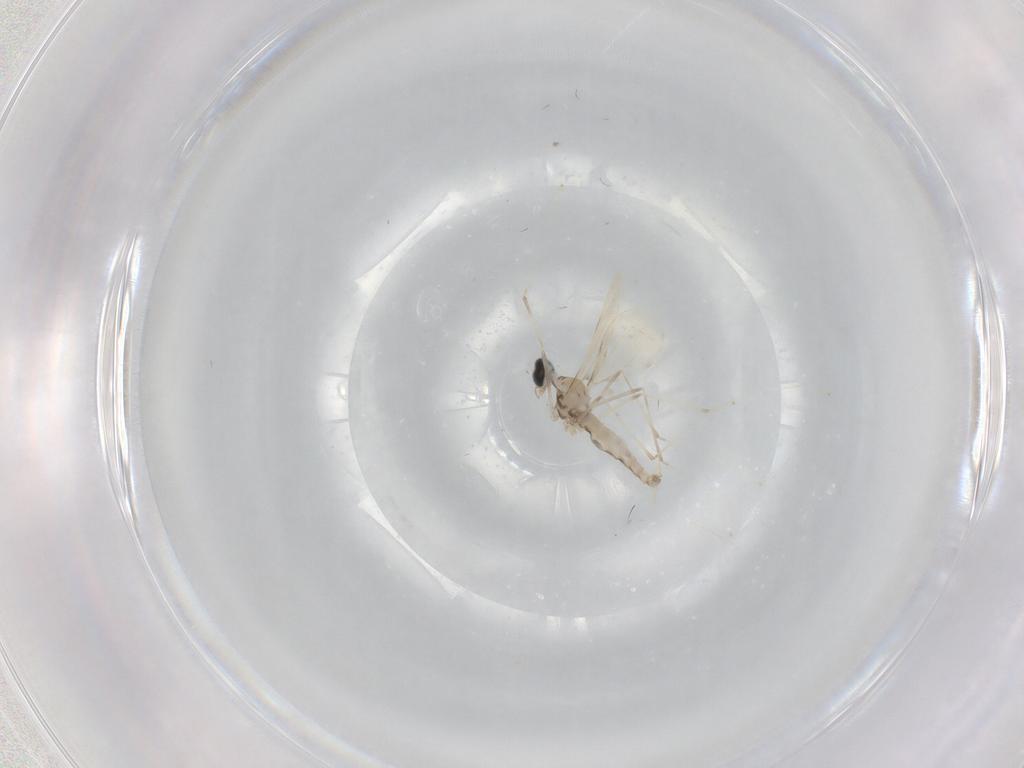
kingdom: Animalia
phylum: Arthropoda
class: Insecta
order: Diptera
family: Cecidomyiidae
